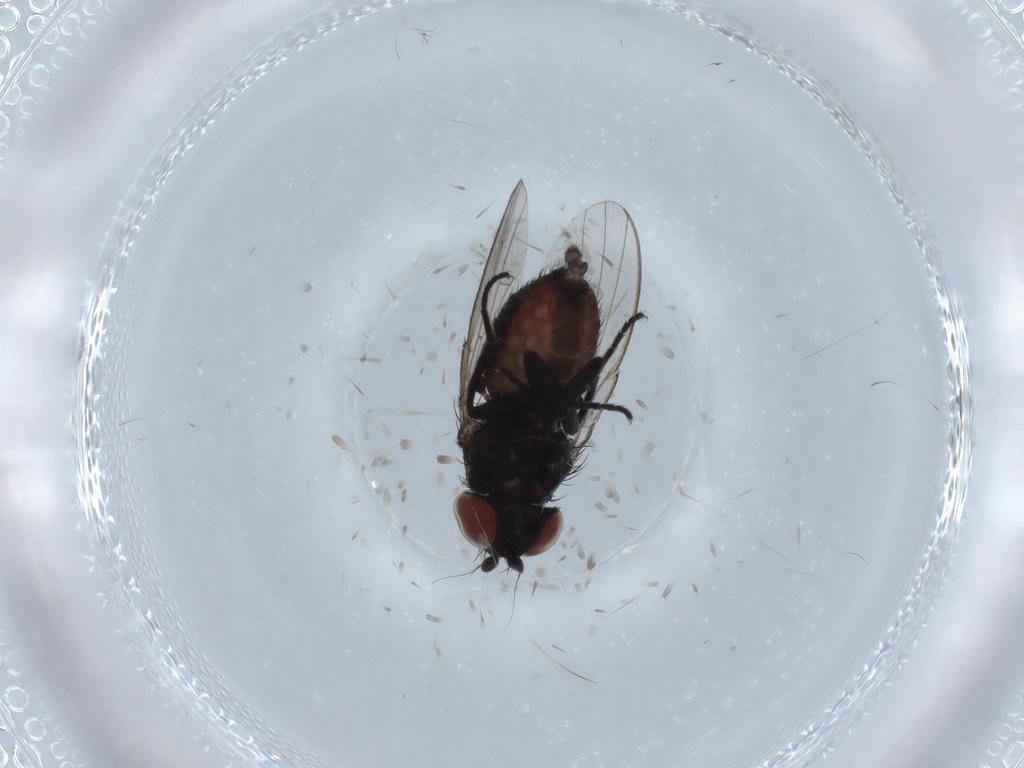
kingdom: Animalia
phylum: Arthropoda
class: Insecta
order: Diptera
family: Milichiidae
